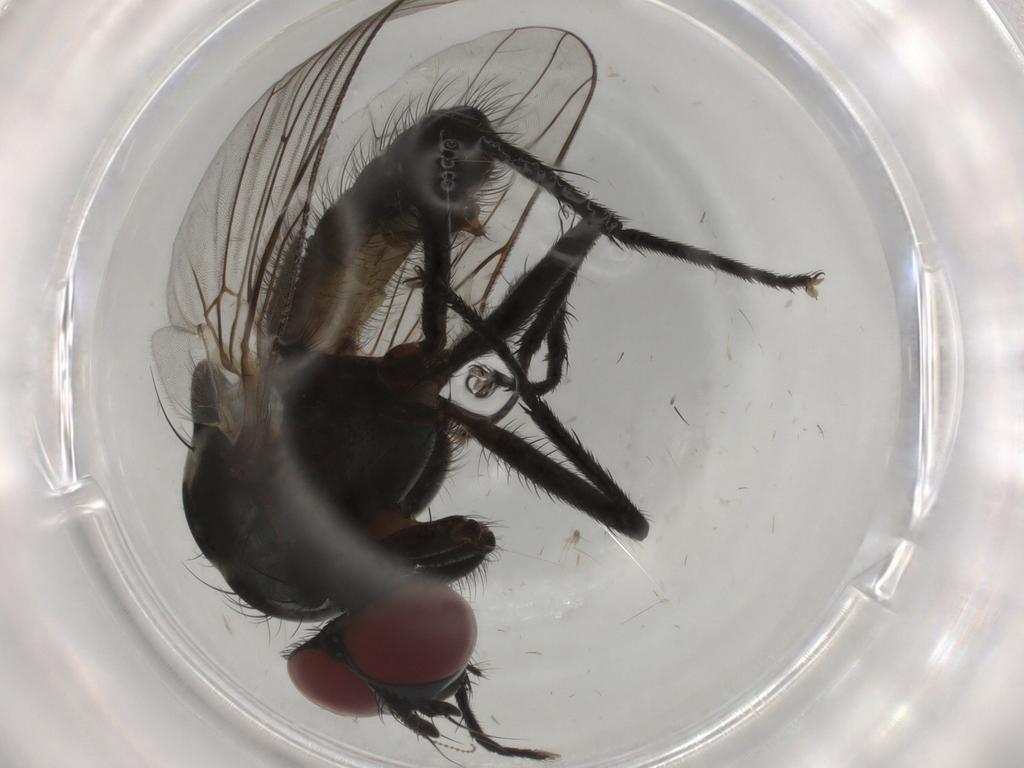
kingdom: Animalia
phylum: Arthropoda
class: Insecta
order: Diptera
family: Anthomyiidae
